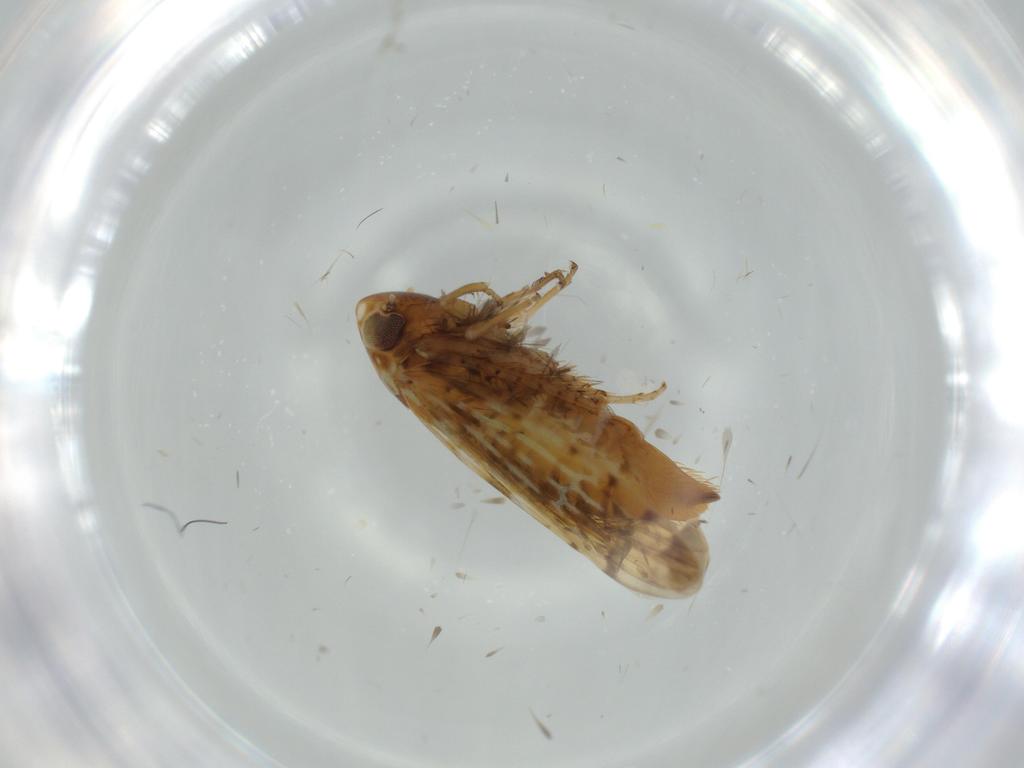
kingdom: Animalia
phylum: Arthropoda
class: Insecta
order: Hemiptera
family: Cicadellidae
